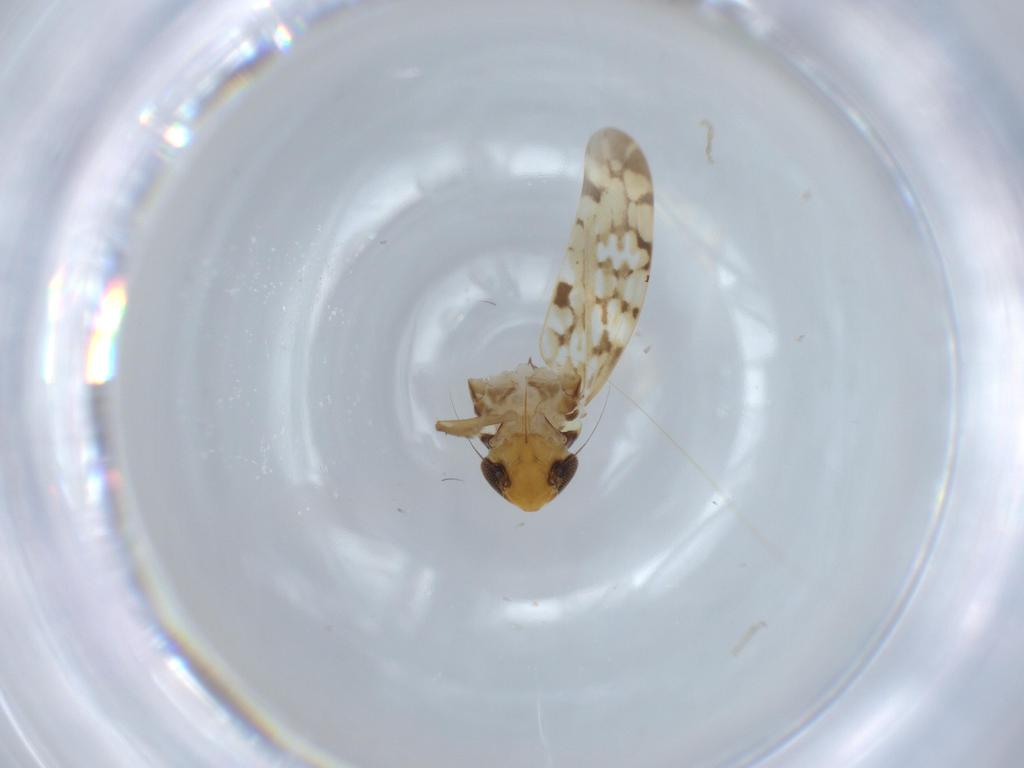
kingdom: Animalia
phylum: Arthropoda
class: Insecta
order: Hemiptera
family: Cicadellidae
